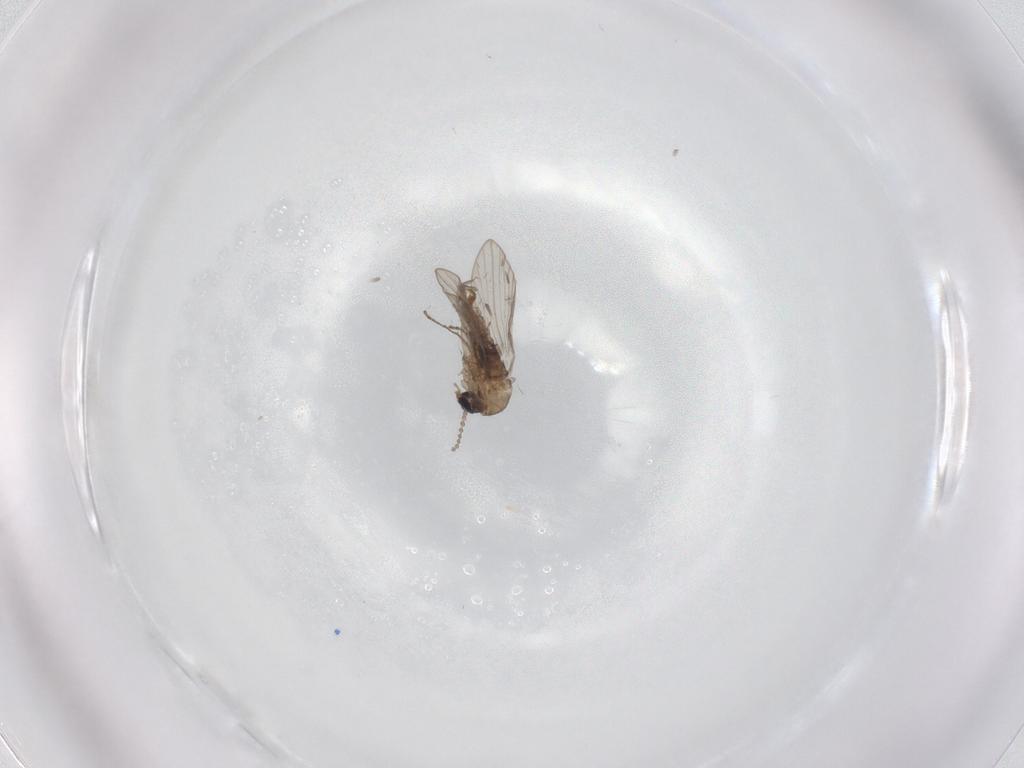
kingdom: Animalia
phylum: Arthropoda
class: Insecta
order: Diptera
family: Psychodidae
